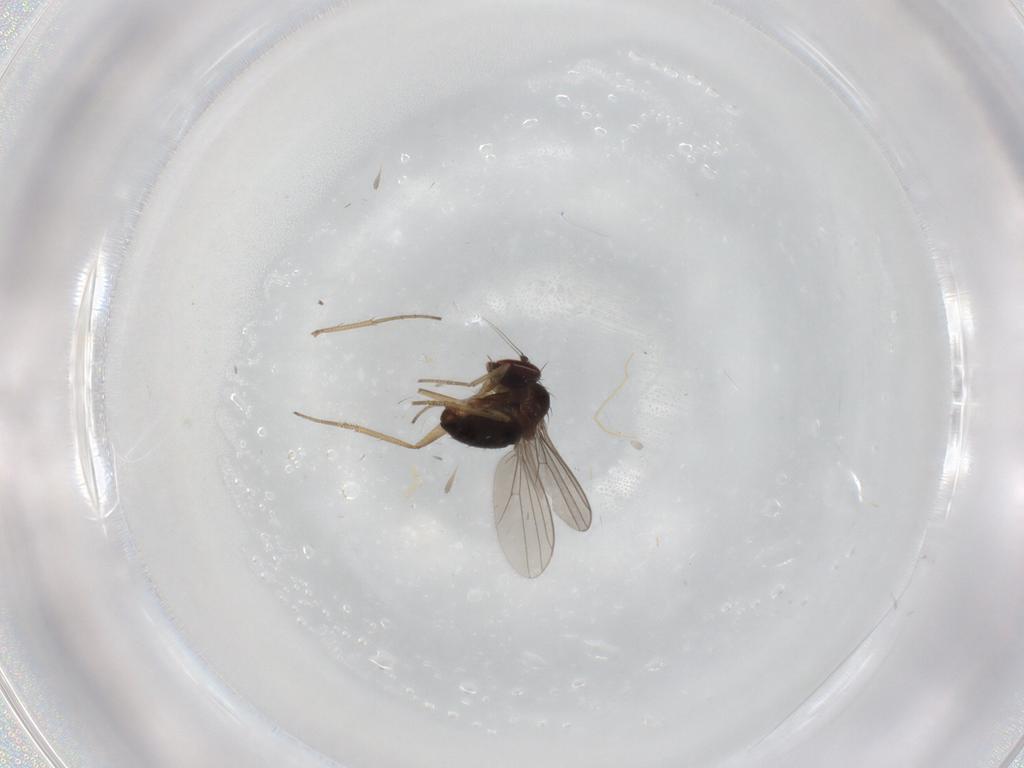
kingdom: Animalia
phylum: Arthropoda
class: Insecta
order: Diptera
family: Dolichopodidae
